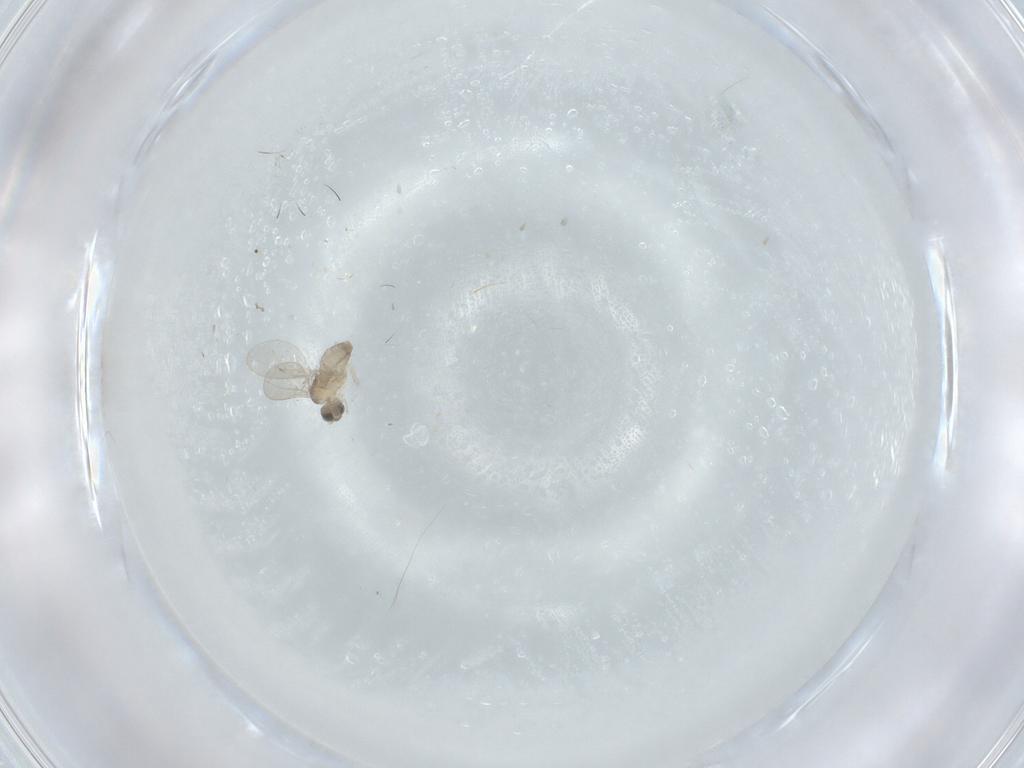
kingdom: Animalia
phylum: Arthropoda
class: Insecta
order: Diptera
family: Cecidomyiidae
